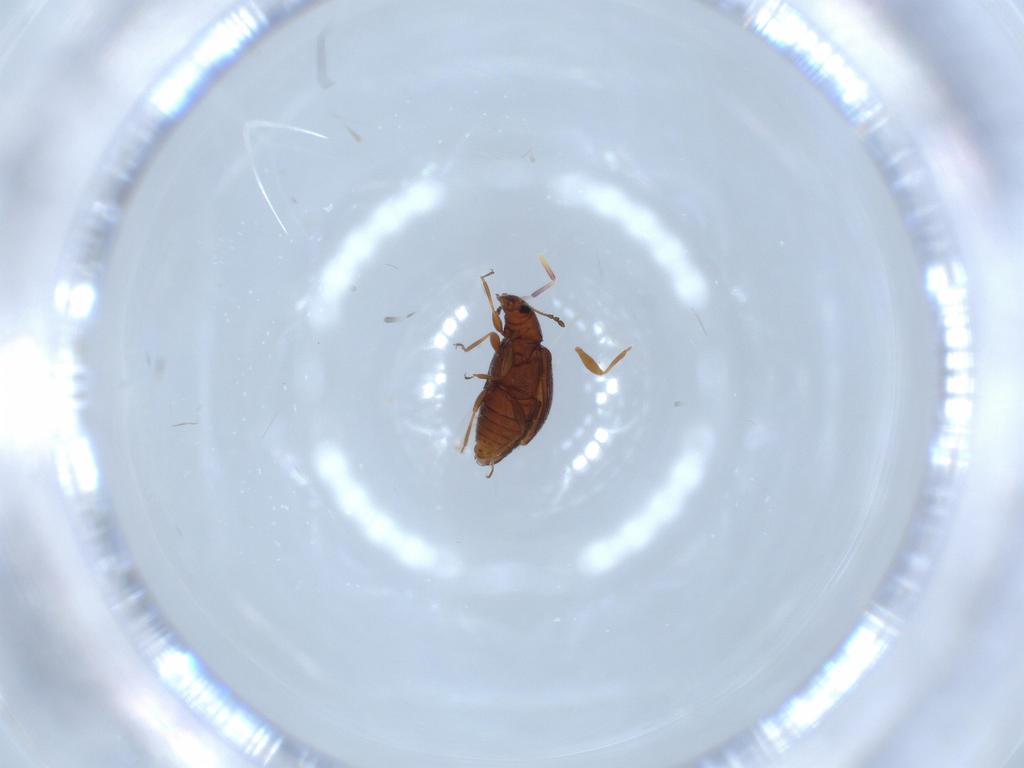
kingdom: Animalia
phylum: Arthropoda
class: Insecta
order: Coleoptera
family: Latridiidae
